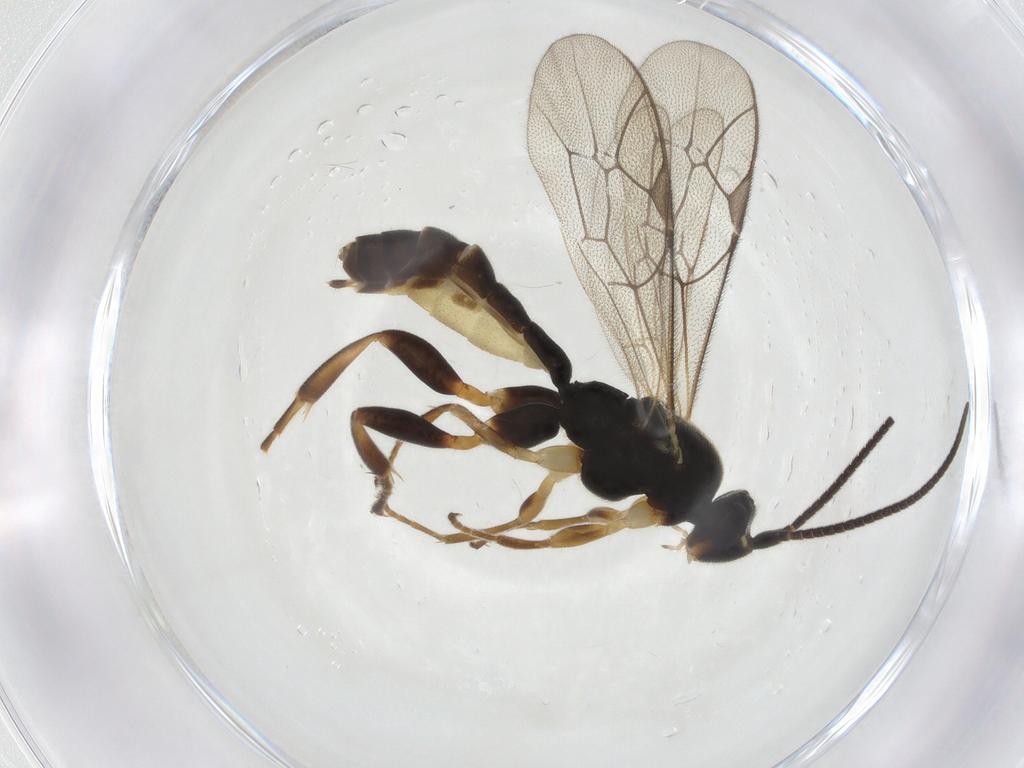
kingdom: Animalia
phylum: Arthropoda
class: Insecta
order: Hymenoptera
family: Ichneumonidae
